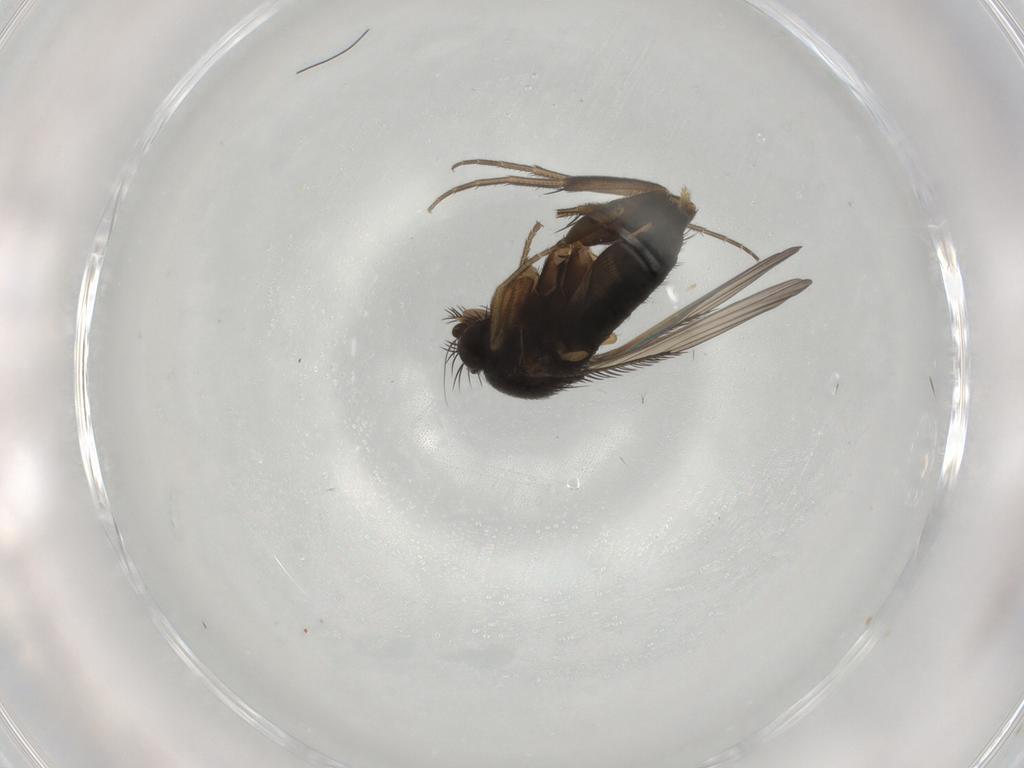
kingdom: Animalia
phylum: Arthropoda
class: Insecta
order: Diptera
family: Phoridae
